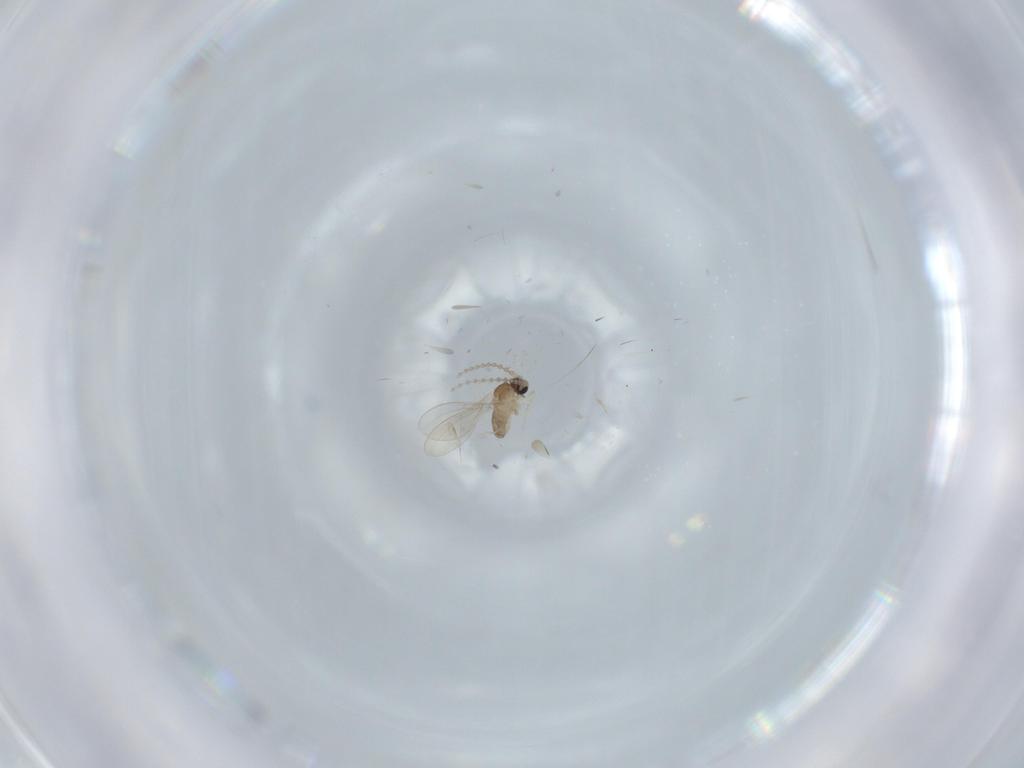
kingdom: Animalia
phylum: Arthropoda
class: Insecta
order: Diptera
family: Cecidomyiidae
